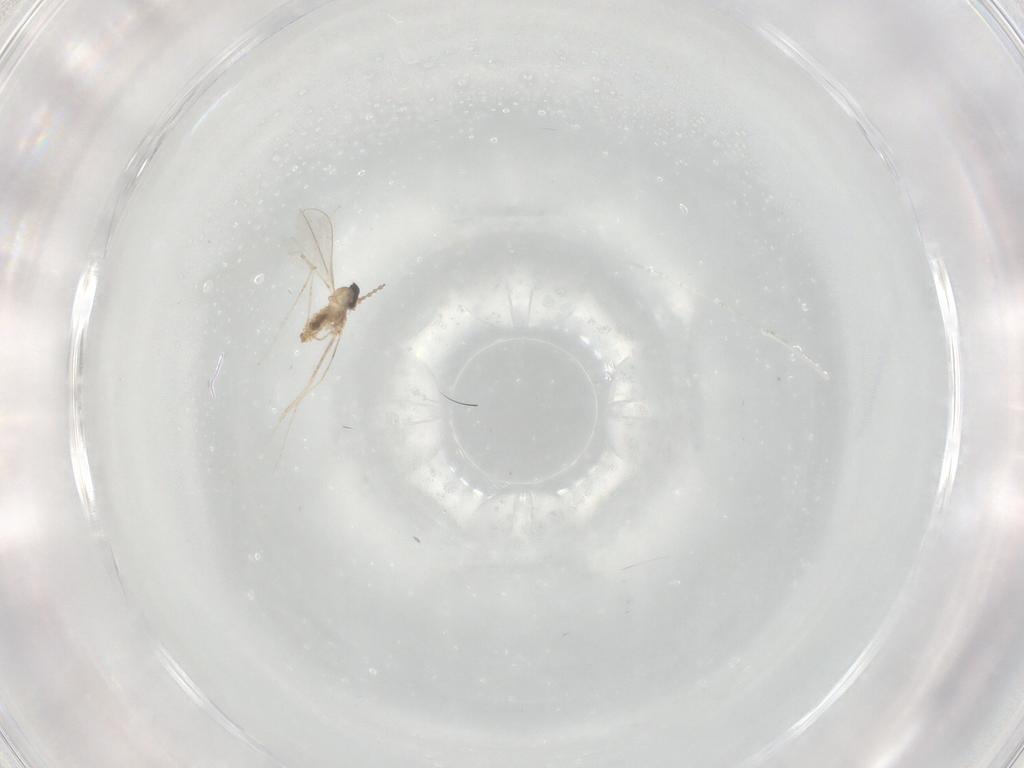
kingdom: Animalia
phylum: Arthropoda
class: Insecta
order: Diptera
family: Cecidomyiidae
